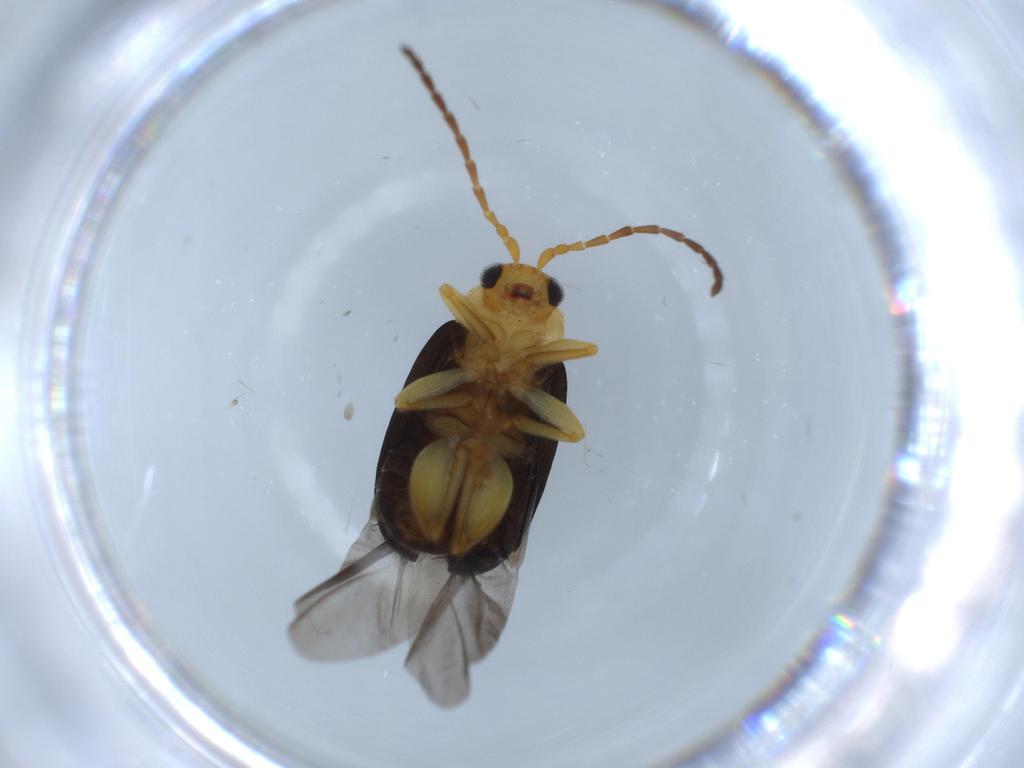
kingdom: Animalia
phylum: Arthropoda
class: Insecta
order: Coleoptera
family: Chrysomelidae
